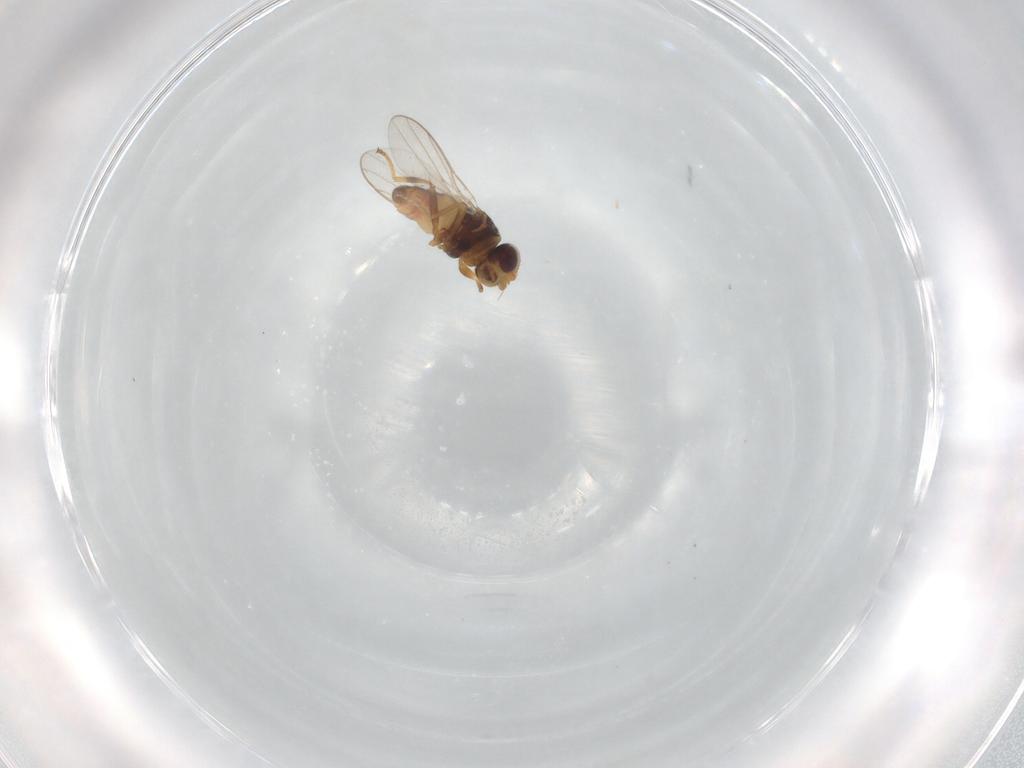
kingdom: Animalia
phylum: Arthropoda
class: Insecta
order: Diptera
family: Chloropidae
